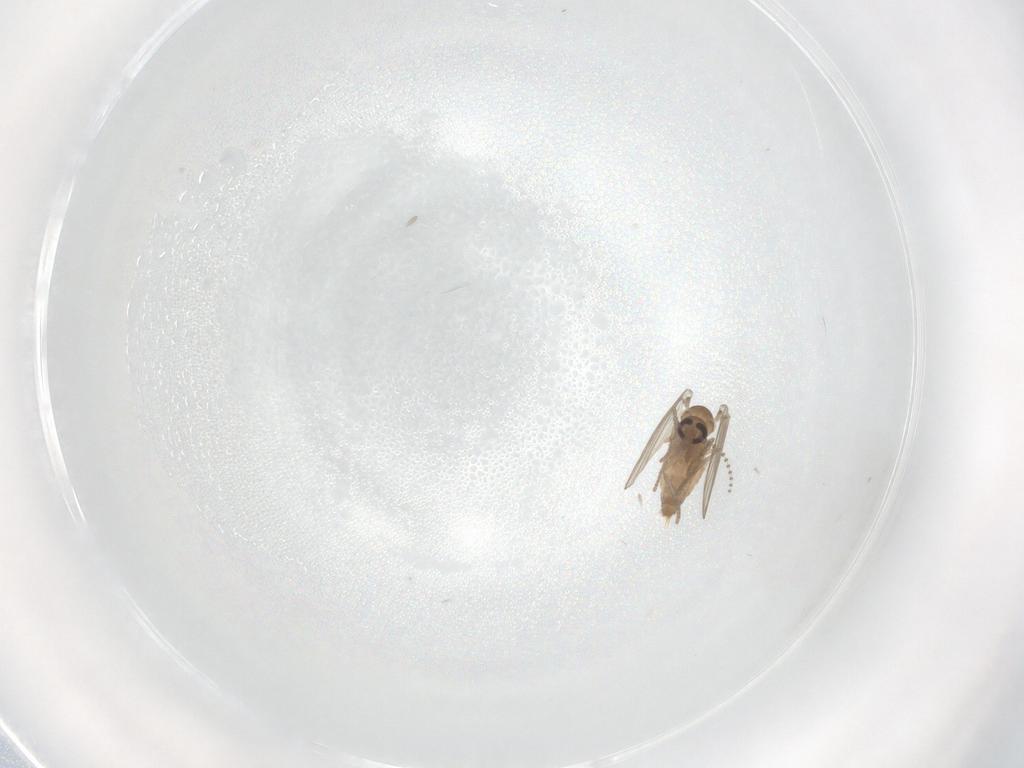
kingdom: Animalia
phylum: Arthropoda
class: Insecta
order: Diptera
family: Psychodidae
